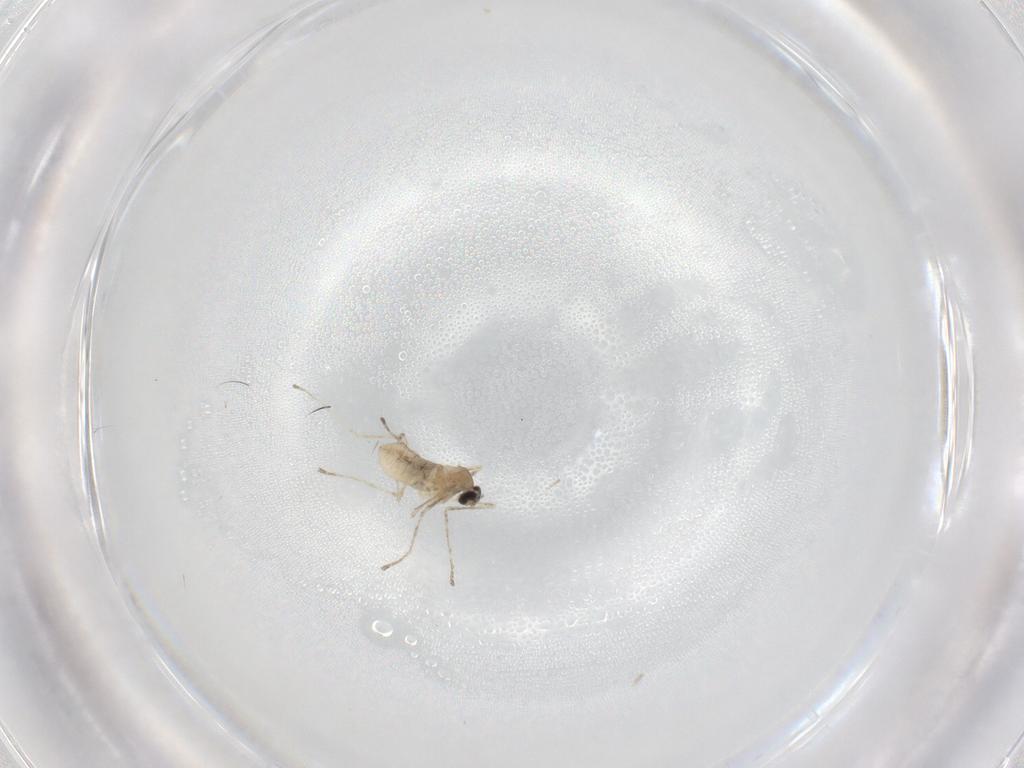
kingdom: Animalia
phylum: Arthropoda
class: Insecta
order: Diptera
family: Cecidomyiidae
